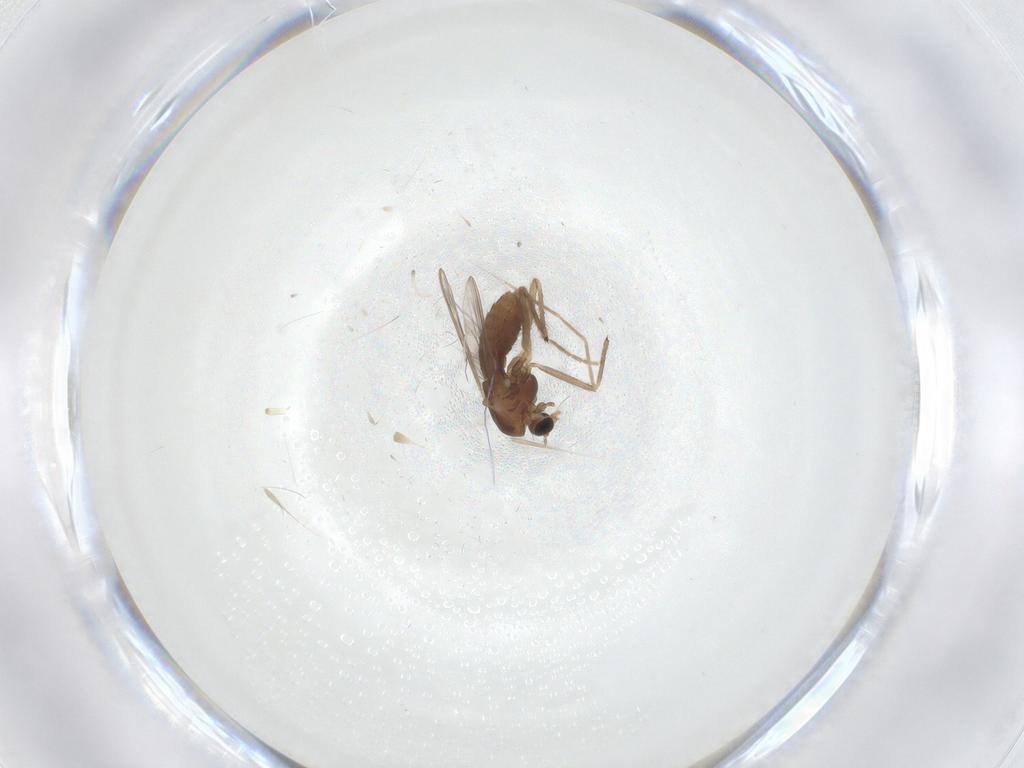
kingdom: Animalia
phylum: Arthropoda
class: Insecta
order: Diptera
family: Chironomidae
